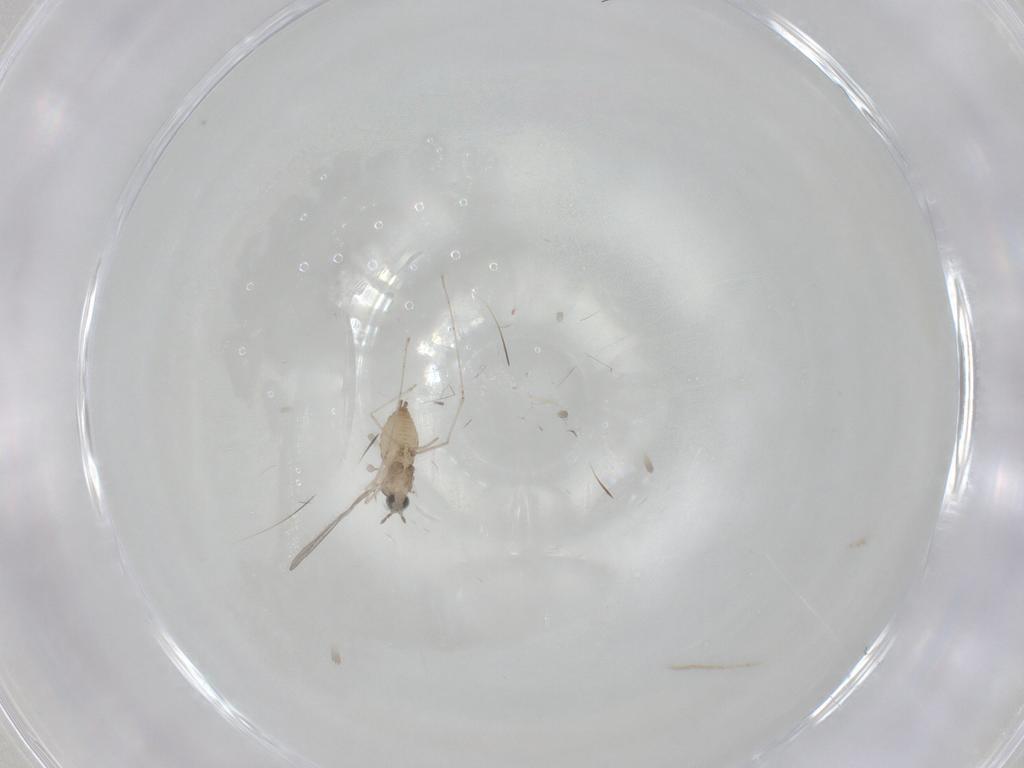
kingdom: Animalia
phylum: Arthropoda
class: Insecta
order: Diptera
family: Cecidomyiidae
